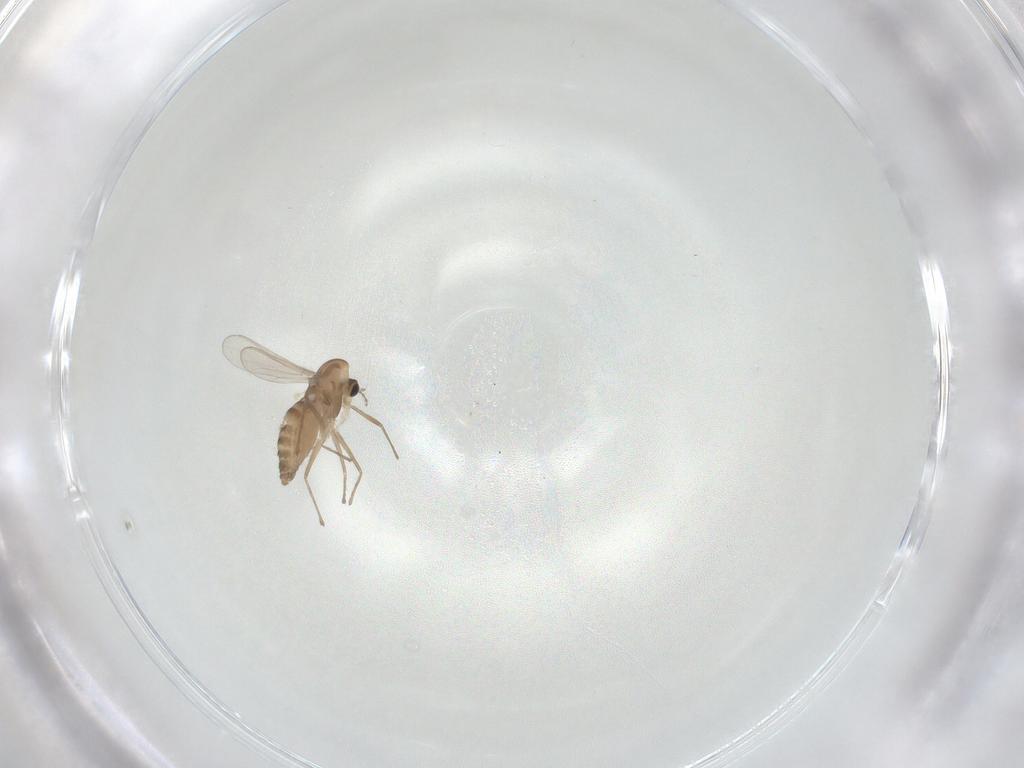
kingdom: Animalia
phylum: Arthropoda
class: Insecta
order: Diptera
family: Chironomidae
